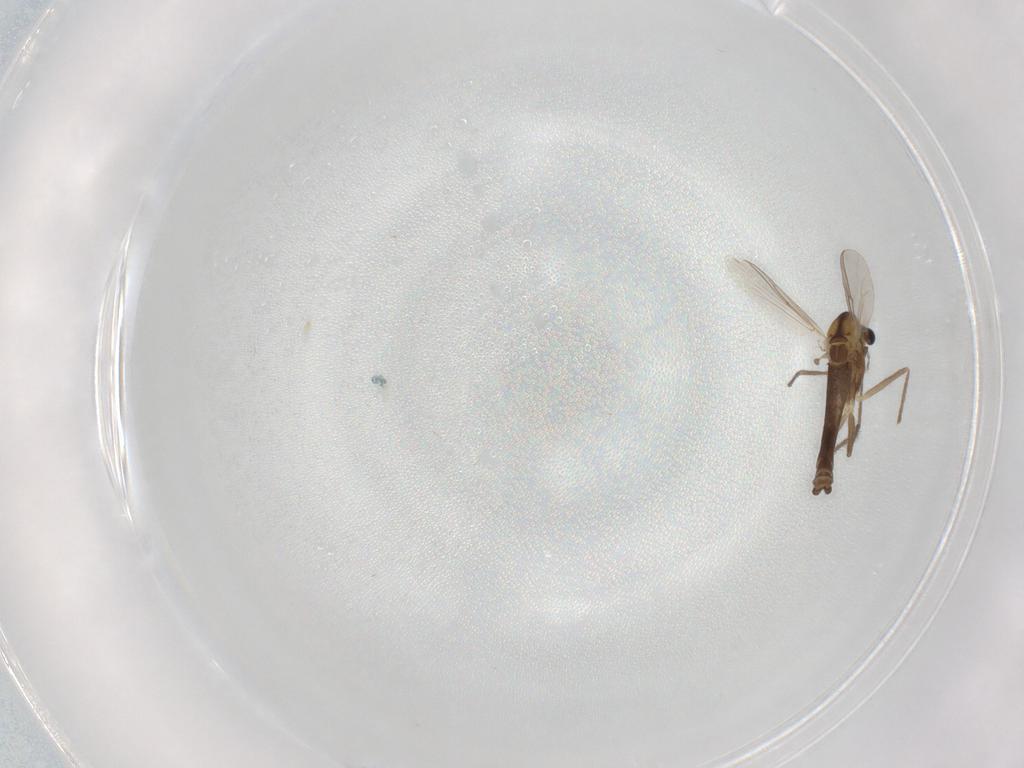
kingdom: Animalia
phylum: Arthropoda
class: Insecta
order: Diptera
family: Chironomidae
